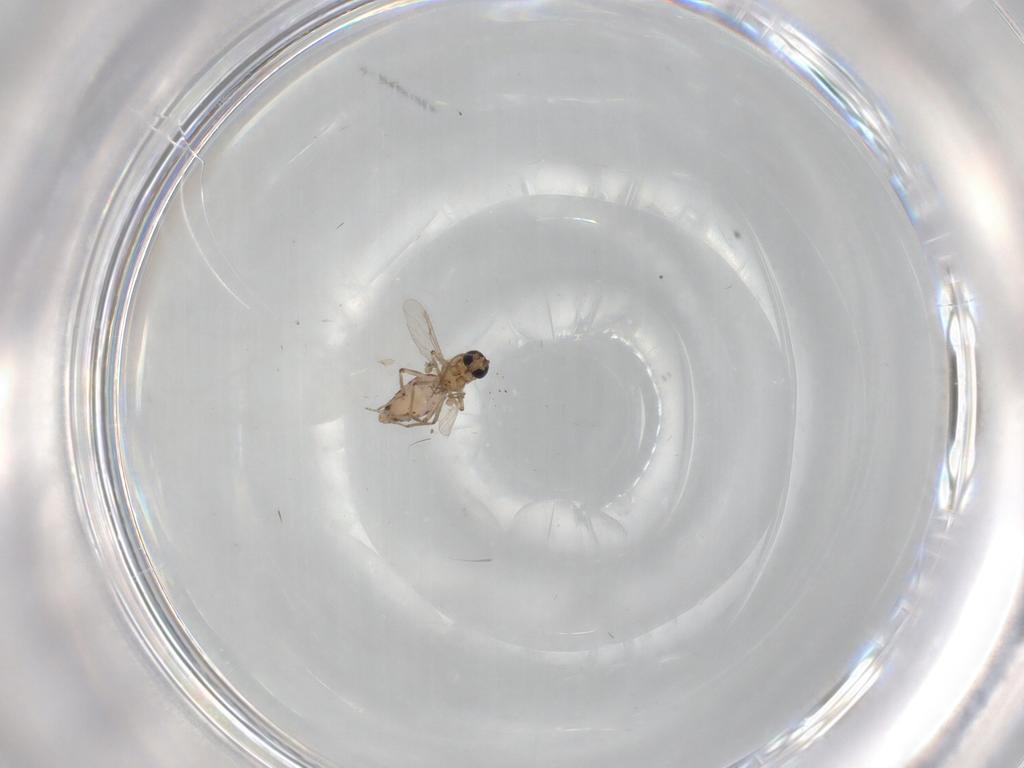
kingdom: Animalia
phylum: Arthropoda
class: Insecta
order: Diptera
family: Ceratopogonidae
